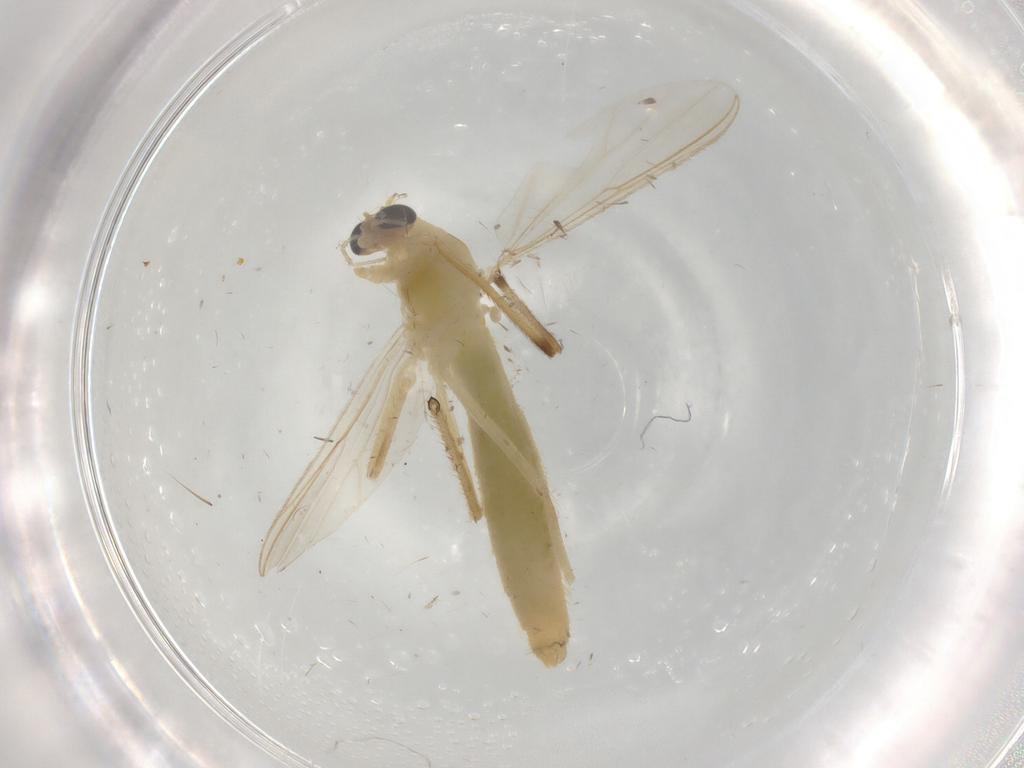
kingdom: Animalia
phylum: Arthropoda
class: Insecta
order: Diptera
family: Chironomidae
